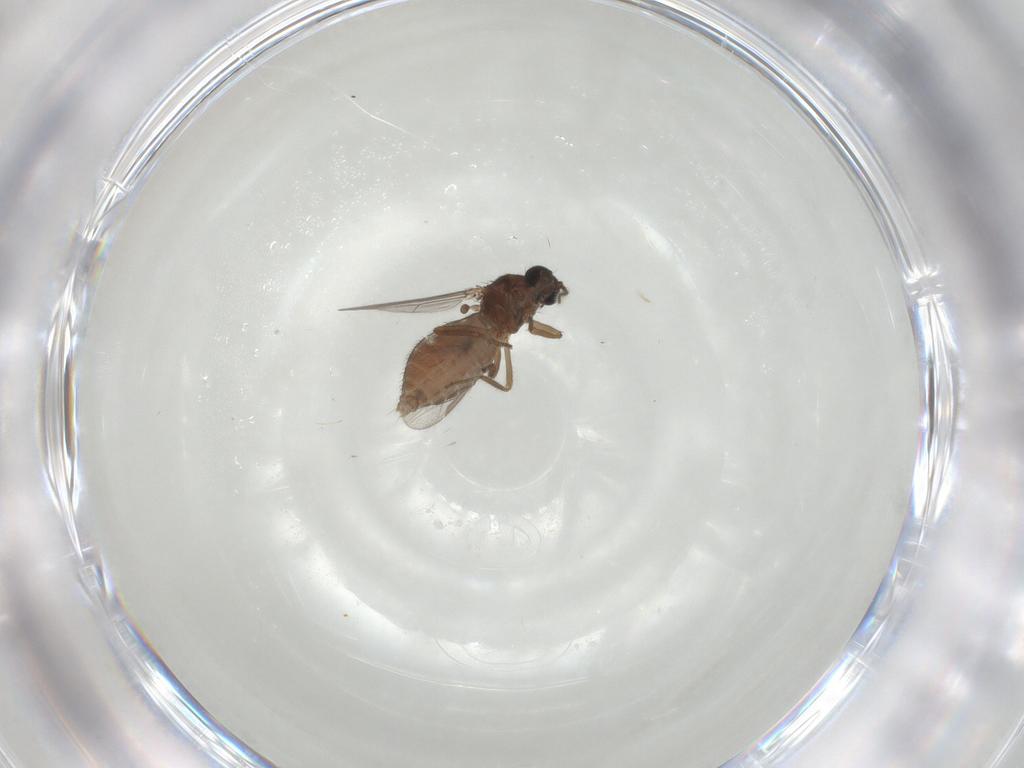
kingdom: Animalia
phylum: Arthropoda
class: Insecta
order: Diptera
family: Ceratopogonidae
